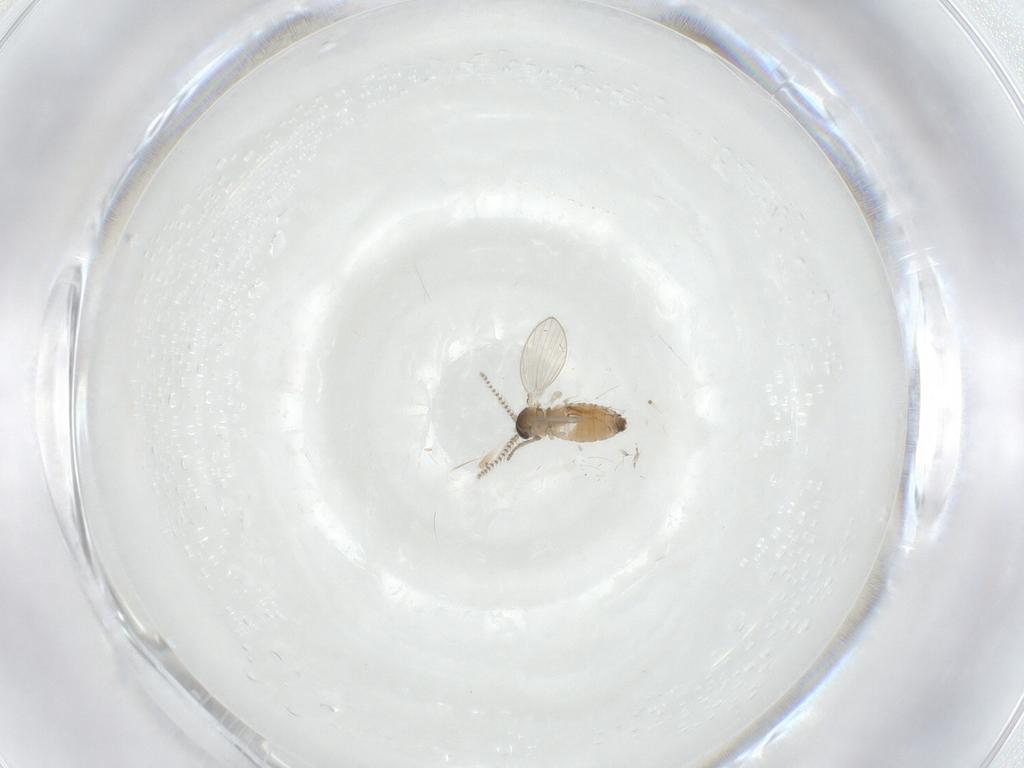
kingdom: Animalia
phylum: Arthropoda
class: Insecta
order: Diptera
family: Psychodidae
